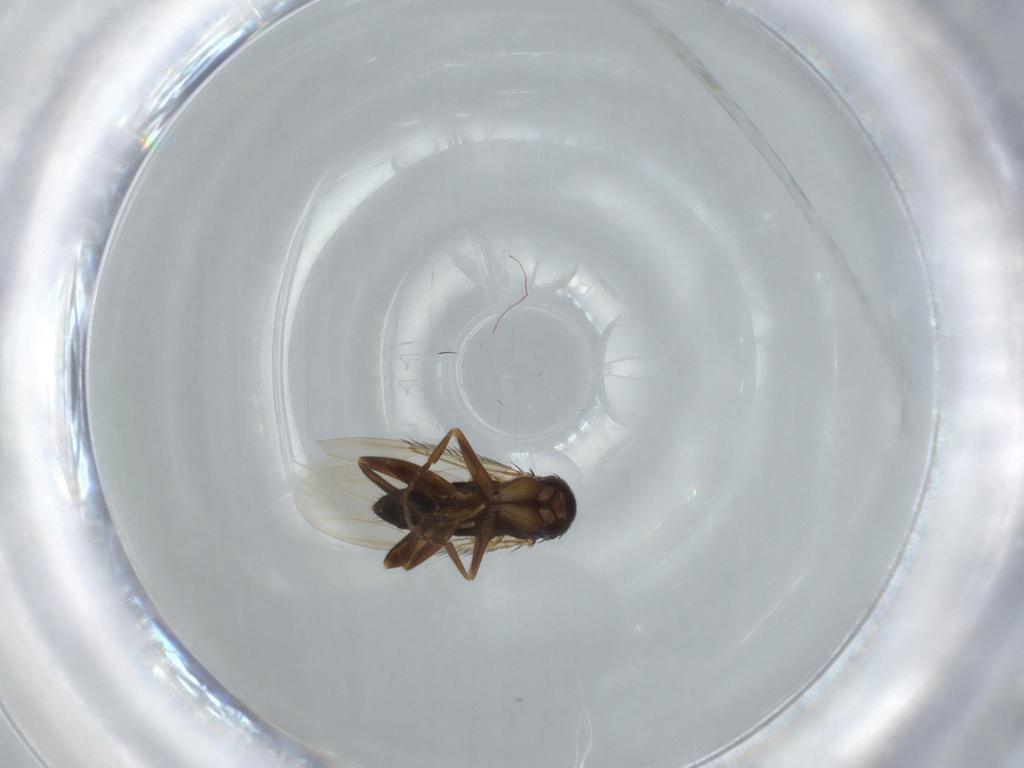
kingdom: Animalia
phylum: Arthropoda
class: Insecta
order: Diptera
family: Phoridae
